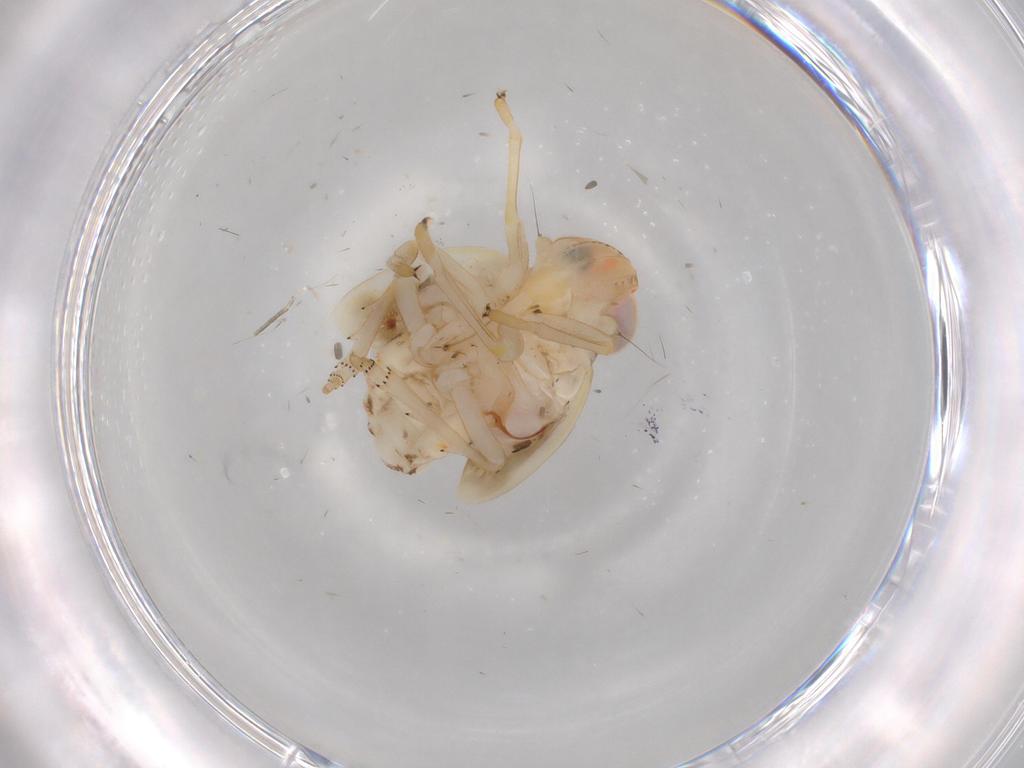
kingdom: Animalia
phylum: Arthropoda
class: Insecta
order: Hemiptera
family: Nogodinidae
